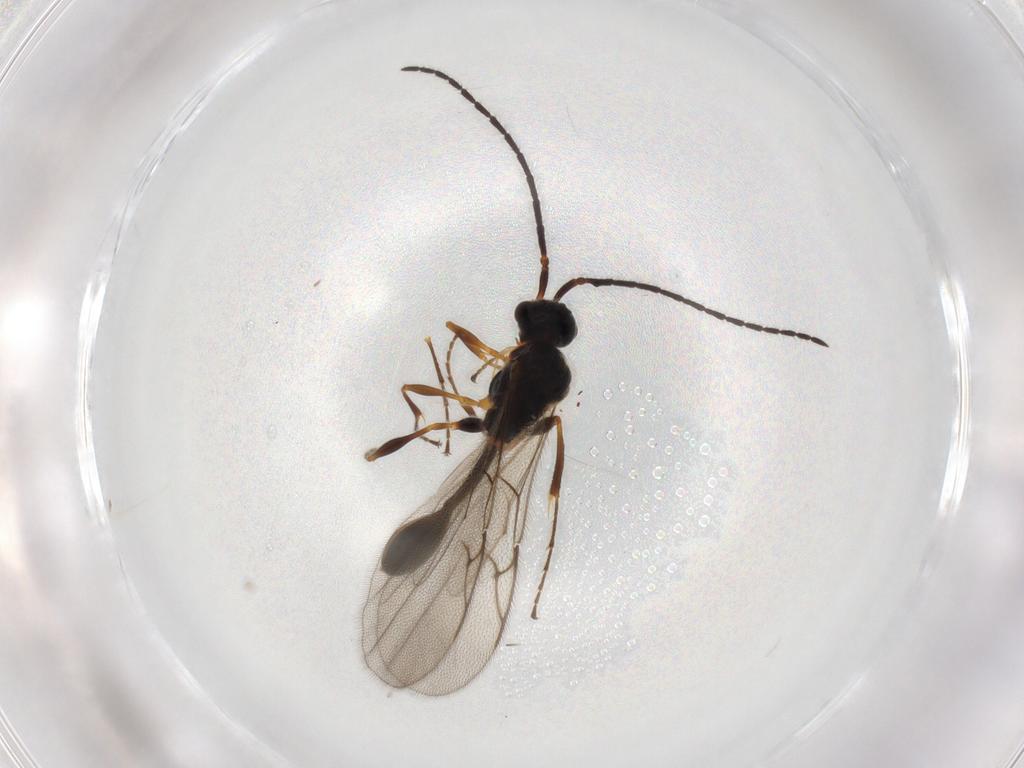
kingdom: Animalia
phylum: Arthropoda
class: Insecta
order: Hymenoptera
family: Diapriidae
